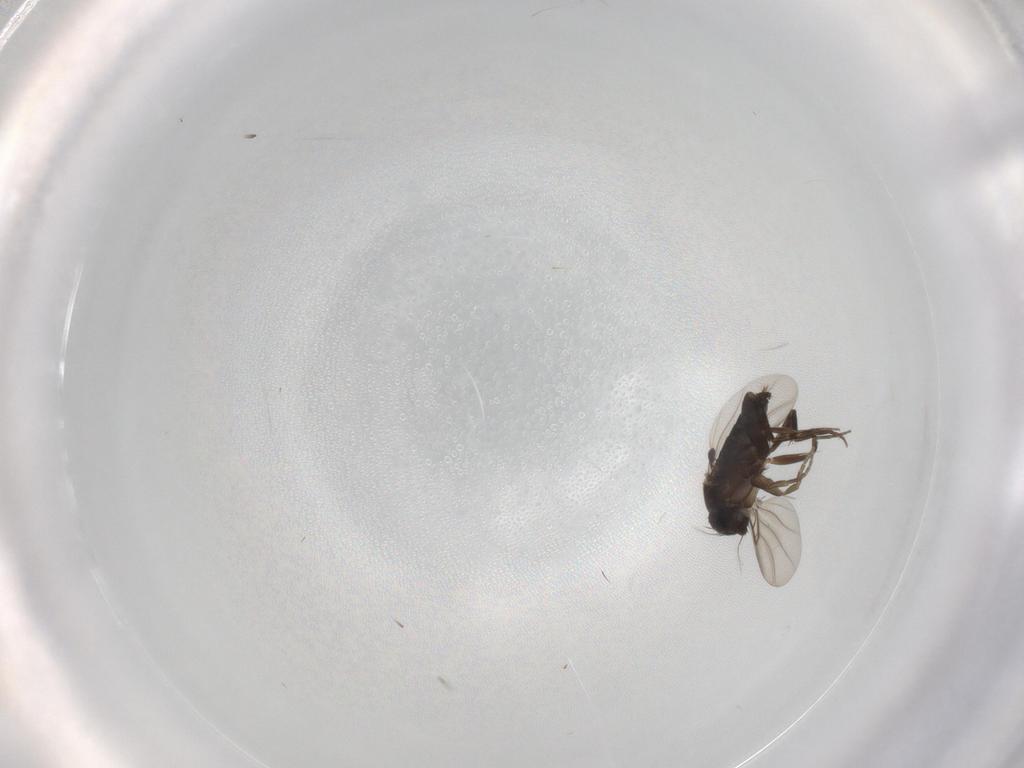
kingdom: Animalia
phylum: Arthropoda
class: Insecta
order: Diptera
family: Phoridae
